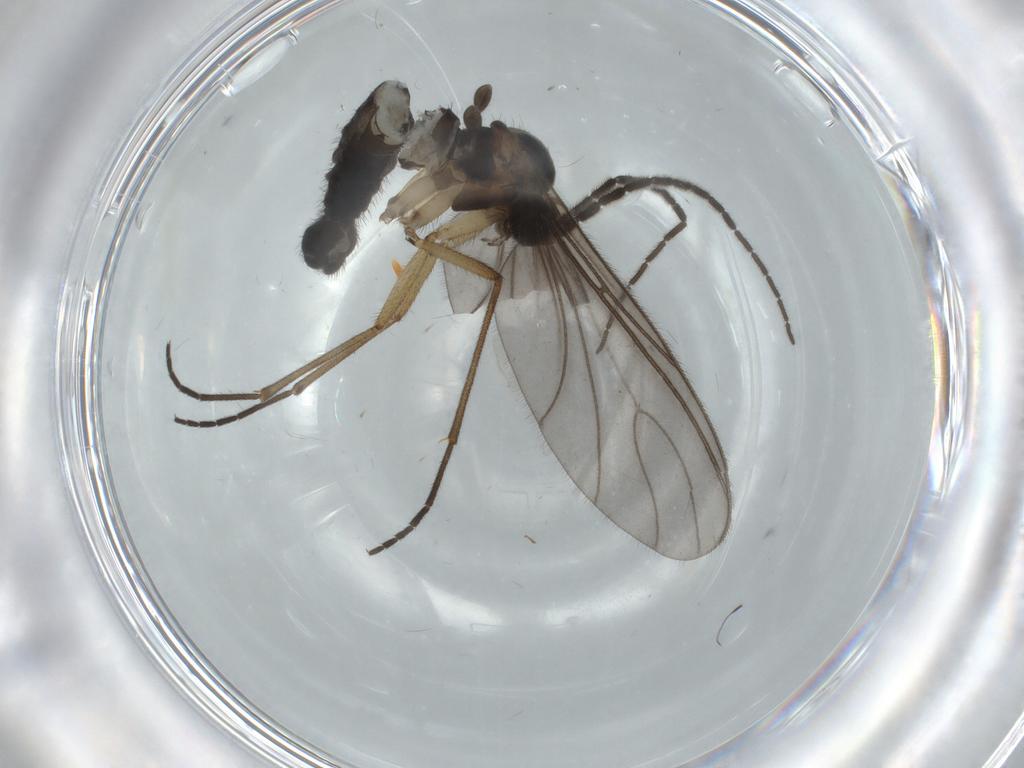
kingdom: Animalia
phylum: Arthropoda
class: Insecta
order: Diptera
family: Sciaridae
